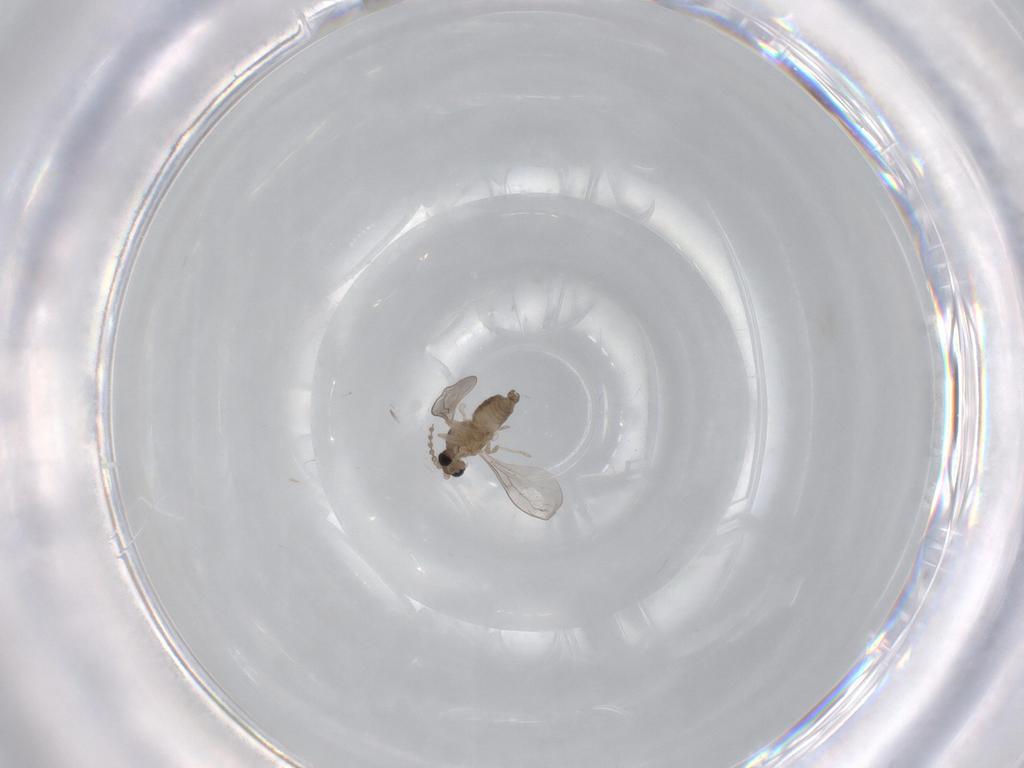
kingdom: Animalia
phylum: Arthropoda
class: Insecta
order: Diptera
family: Cecidomyiidae
